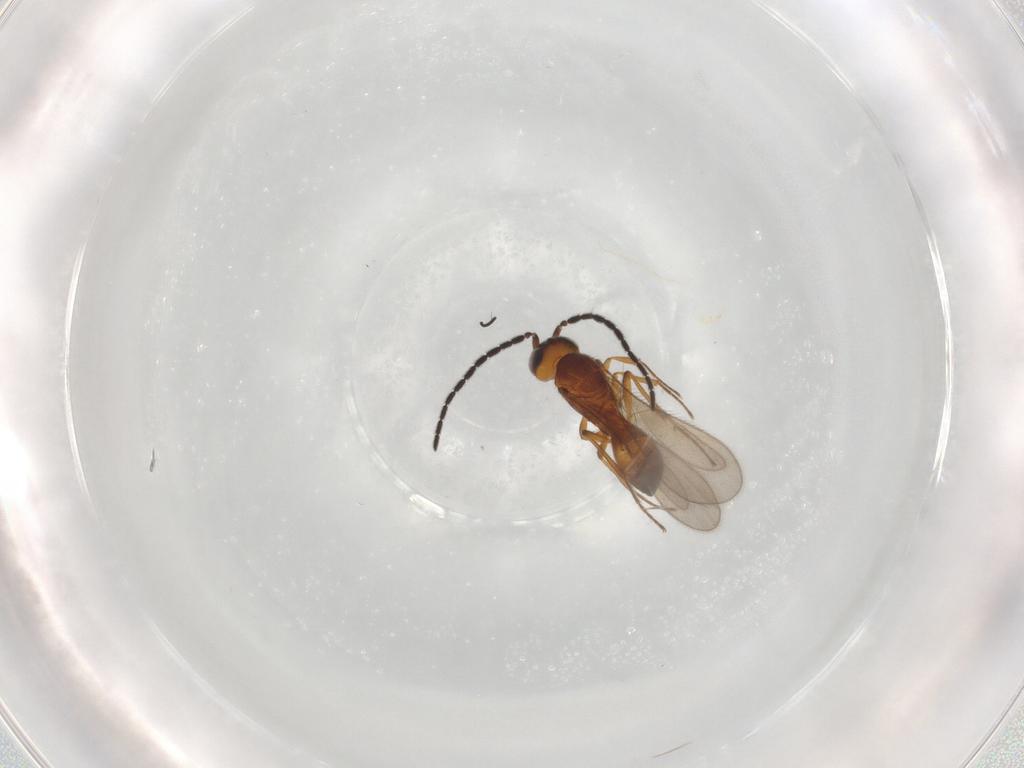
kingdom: Animalia
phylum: Arthropoda
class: Insecta
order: Hymenoptera
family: Scelionidae
